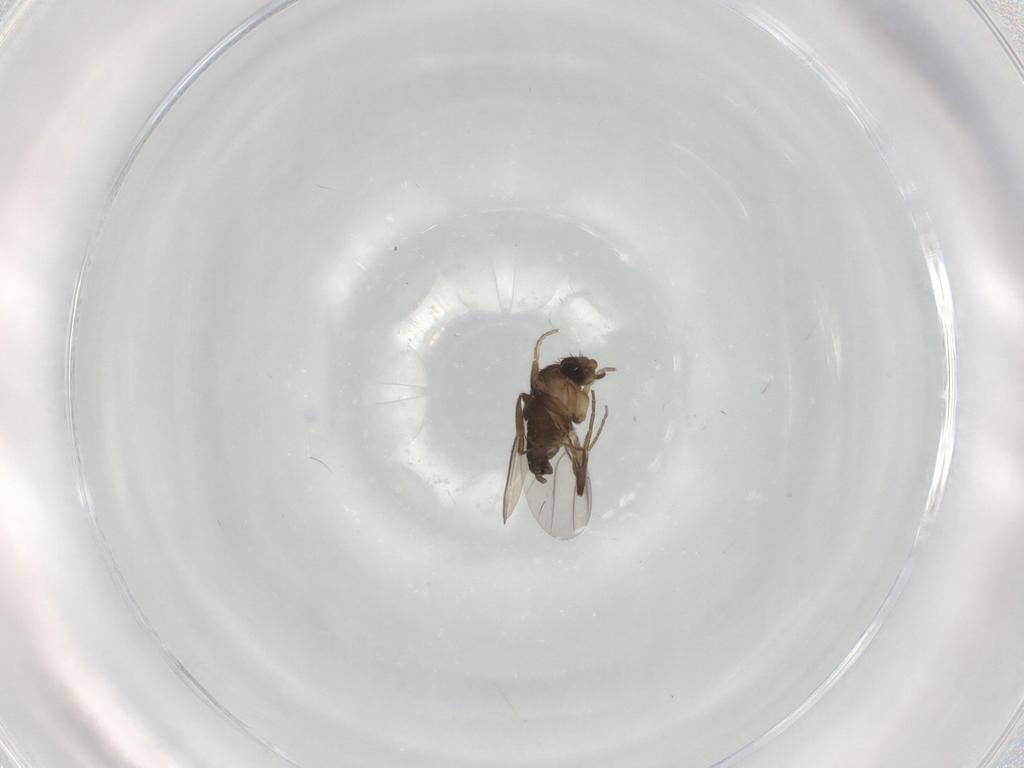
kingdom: Animalia
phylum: Arthropoda
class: Insecta
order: Diptera
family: Phoridae
